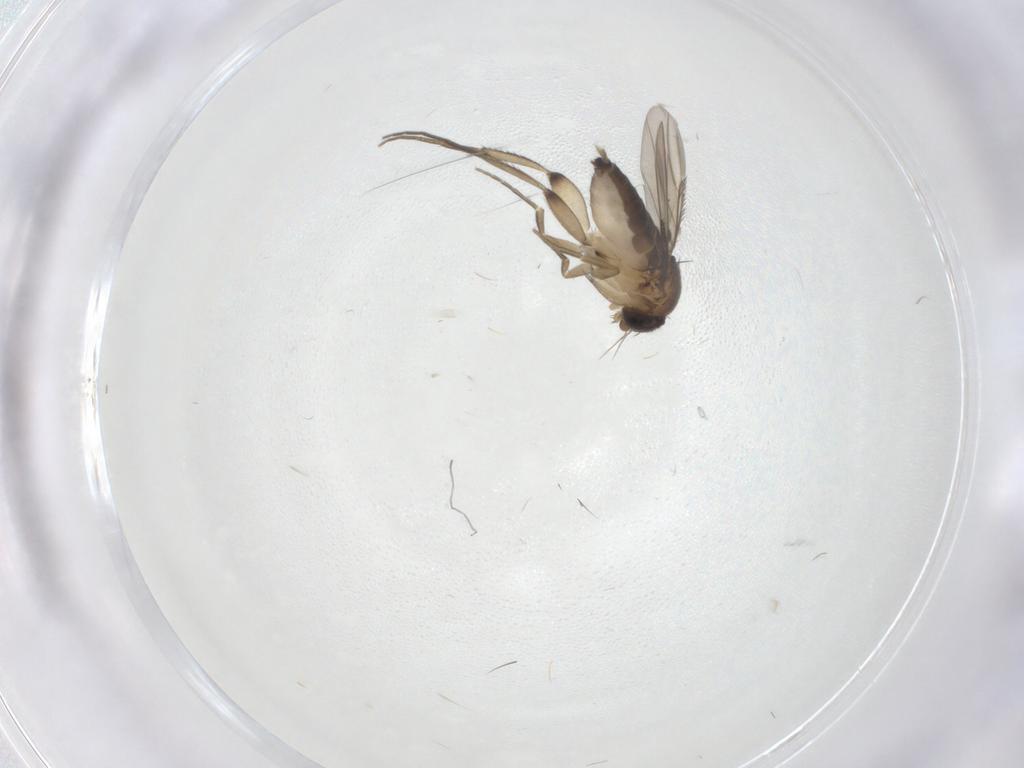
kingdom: Animalia
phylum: Arthropoda
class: Insecta
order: Diptera
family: Phoridae
